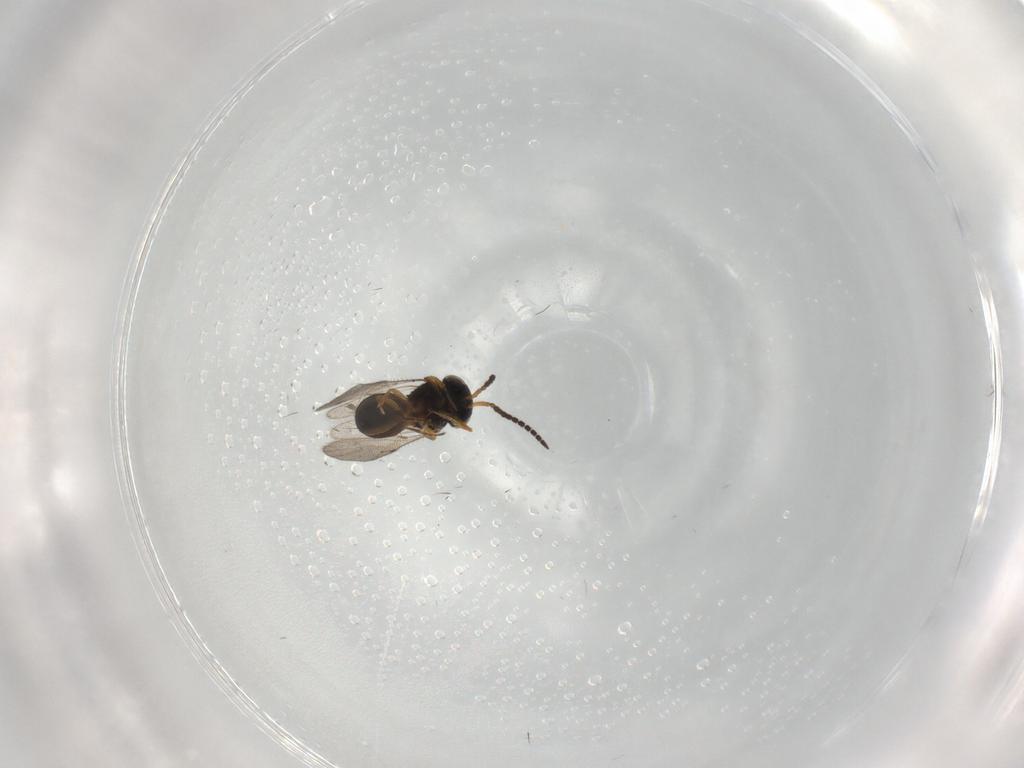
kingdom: Animalia
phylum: Arthropoda
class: Insecta
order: Hymenoptera
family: Scelionidae
